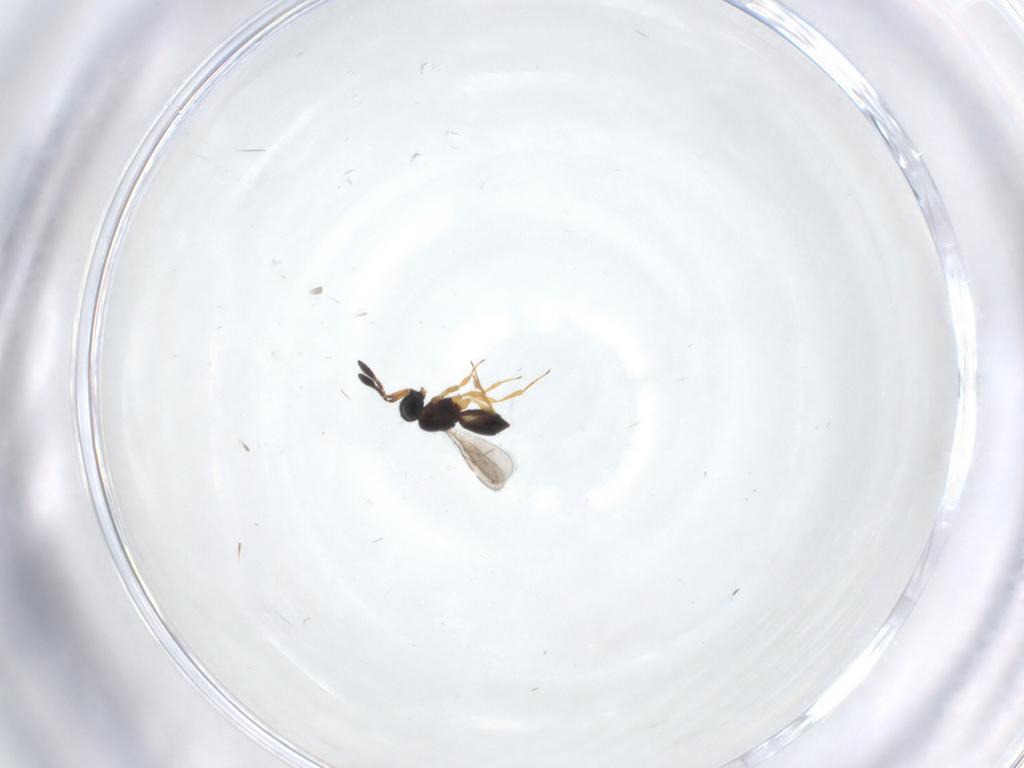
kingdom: Animalia
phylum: Arthropoda
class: Insecta
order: Hymenoptera
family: Scelionidae
